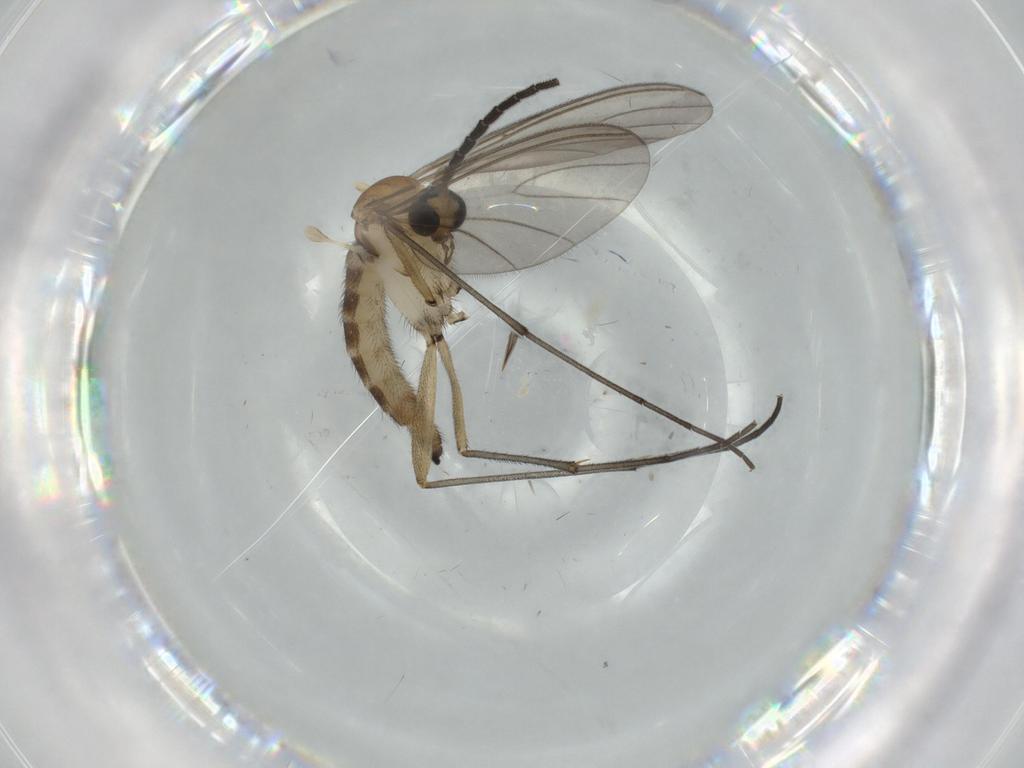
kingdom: Animalia
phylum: Arthropoda
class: Insecta
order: Diptera
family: Sciaridae
